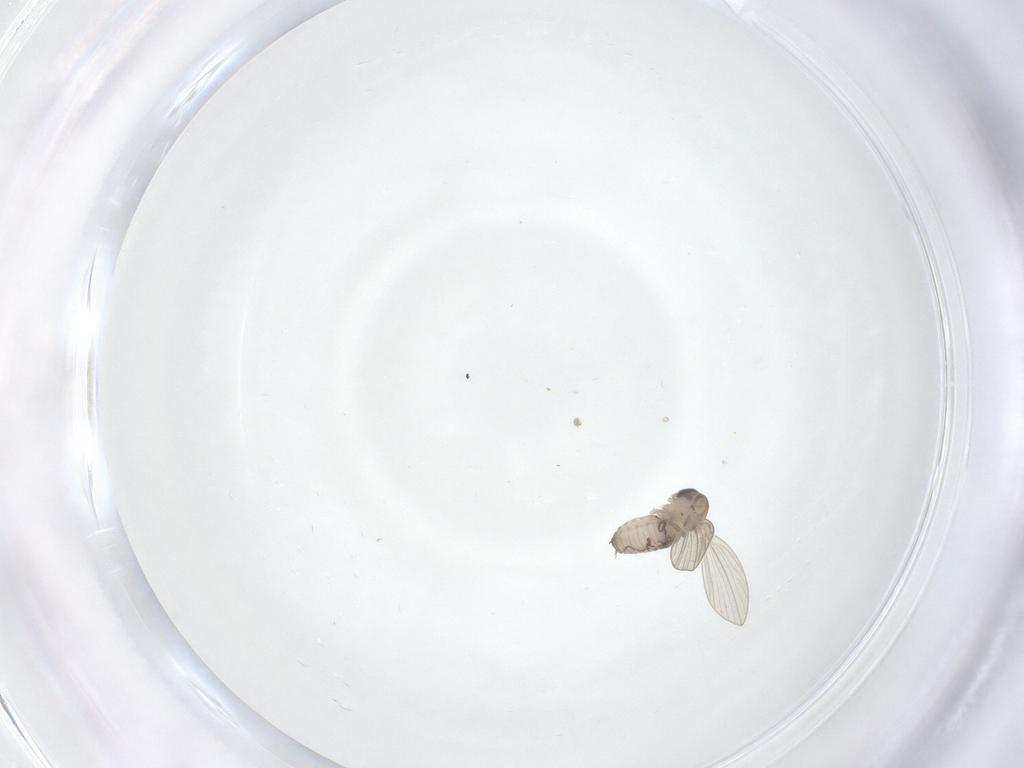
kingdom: Animalia
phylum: Arthropoda
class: Insecta
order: Diptera
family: Psychodidae
